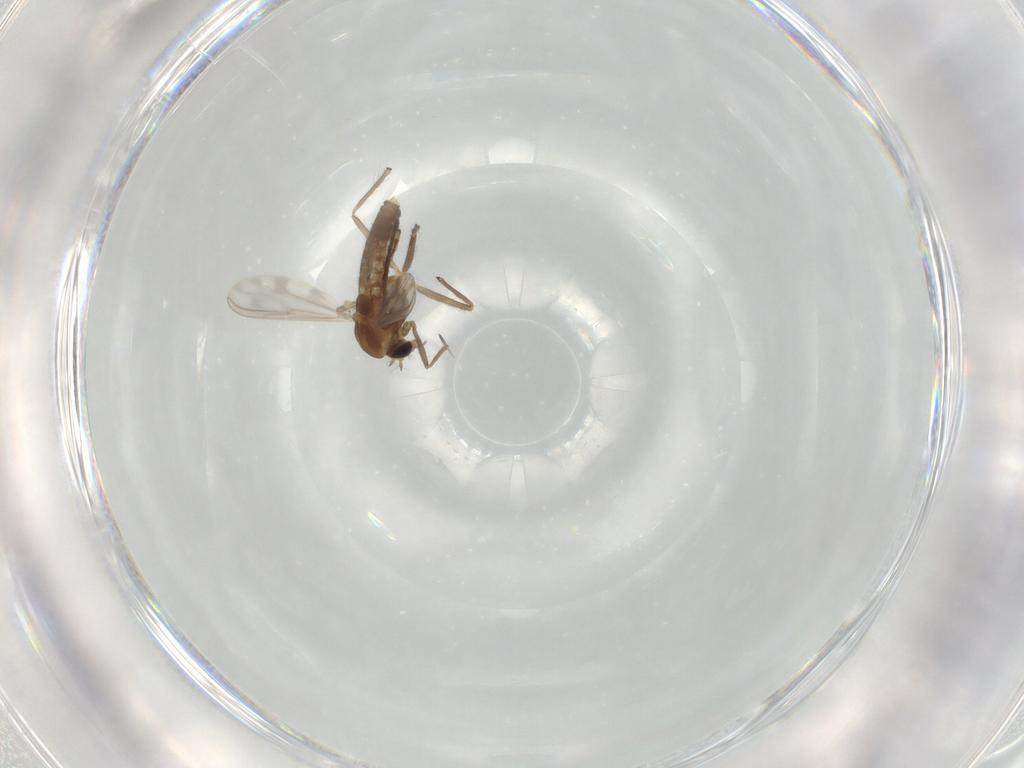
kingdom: Animalia
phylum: Arthropoda
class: Insecta
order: Diptera
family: Chironomidae
